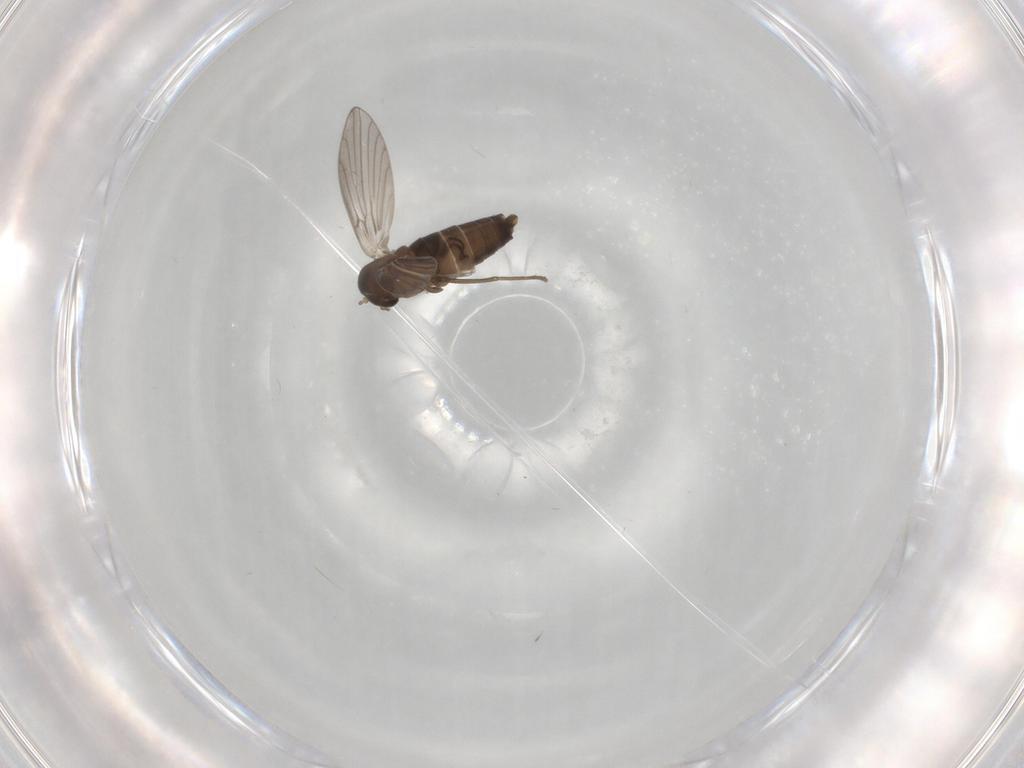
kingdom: Animalia
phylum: Arthropoda
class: Insecta
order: Diptera
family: Psychodidae
